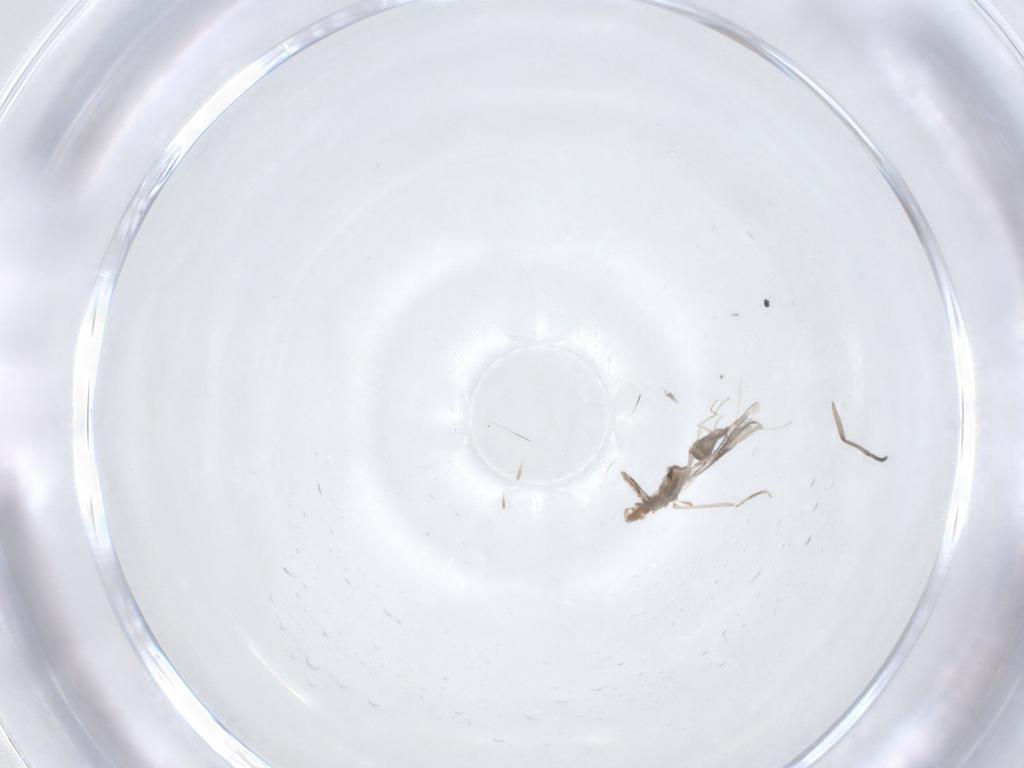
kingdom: Animalia
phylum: Arthropoda
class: Insecta
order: Diptera
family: Sciaridae
